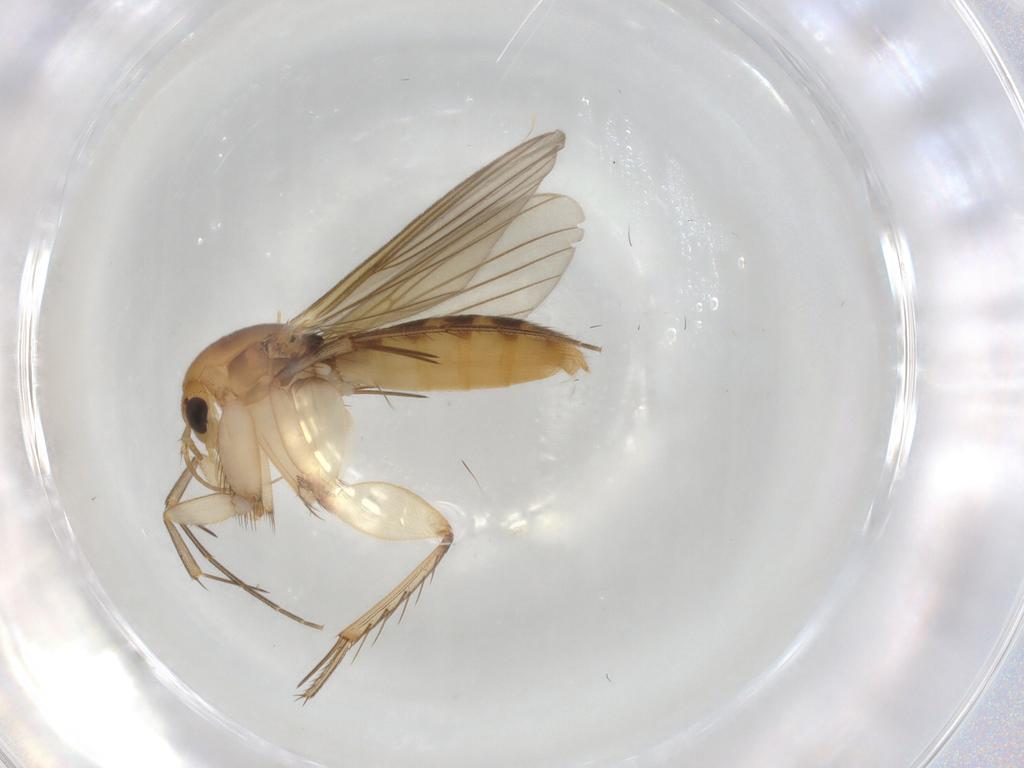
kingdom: Animalia
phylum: Arthropoda
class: Insecta
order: Diptera
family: Mycetophilidae
